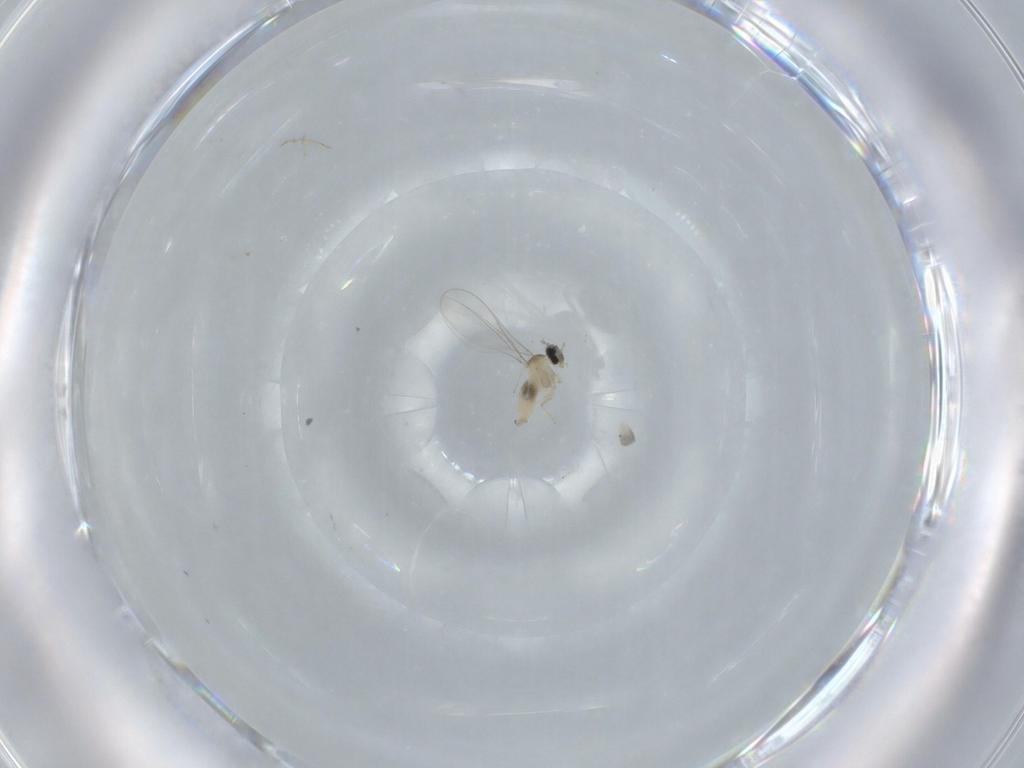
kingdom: Animalia
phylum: Arthropoda
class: Insecta
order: Diptera
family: Cecidomyiidae
